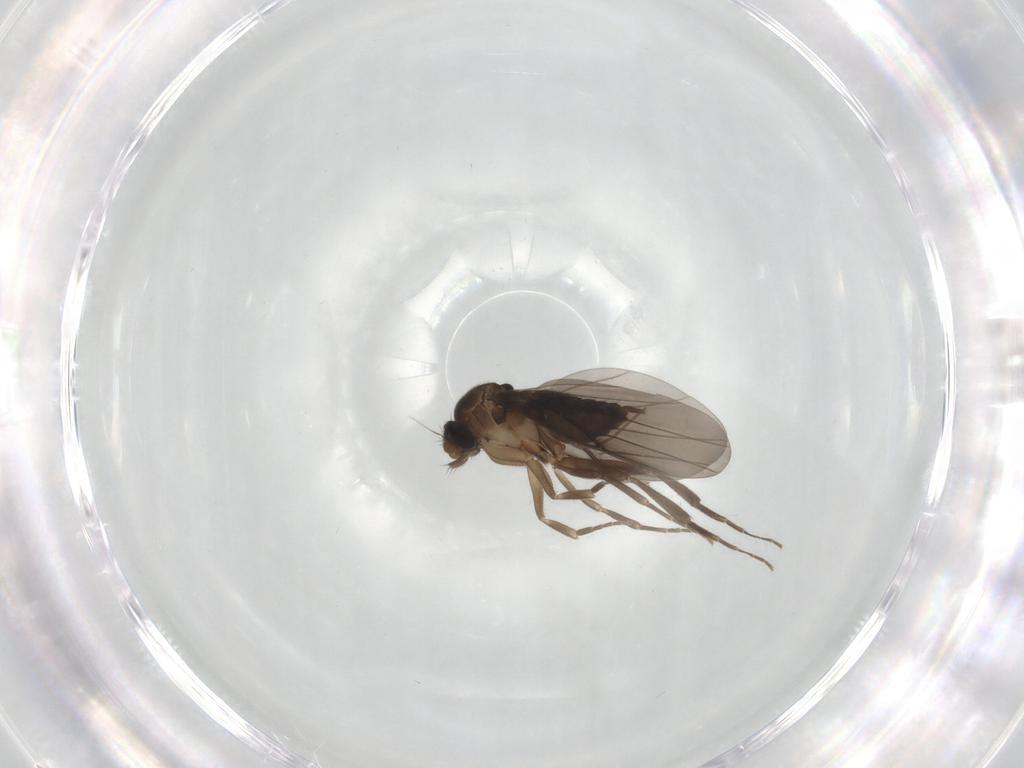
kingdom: Animalia
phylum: Arthropoda
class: Insecta
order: Diptera
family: Phoridae
